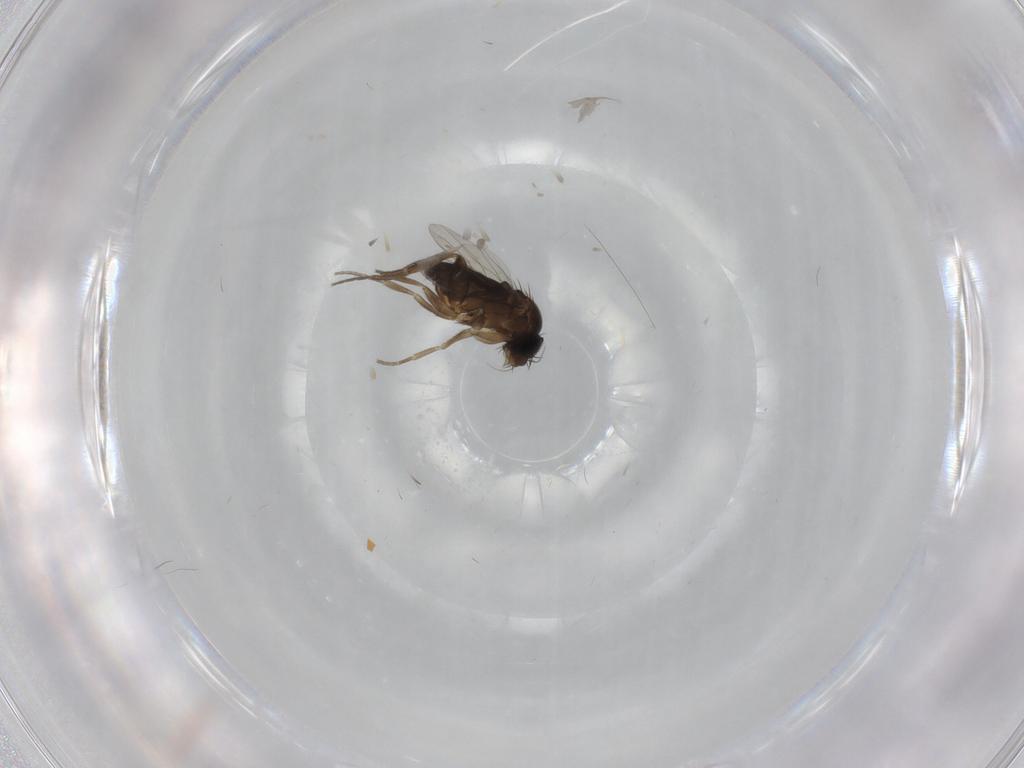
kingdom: Animalia
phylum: Arthropoda
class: Insecta
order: Diptera
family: Phoridae
